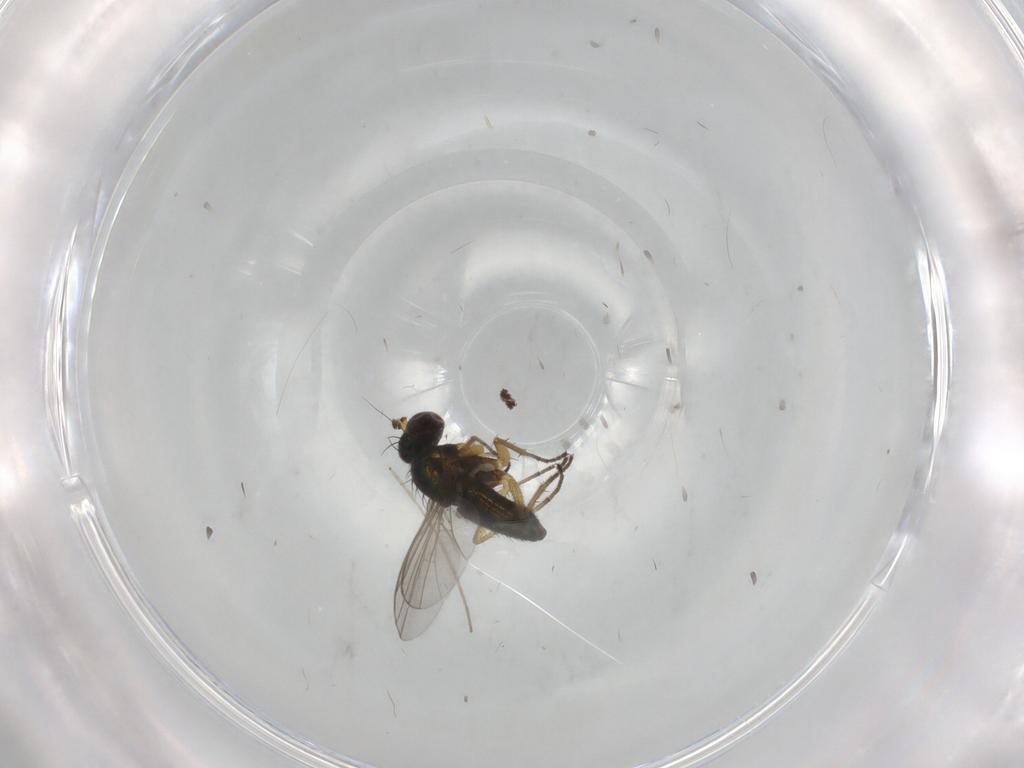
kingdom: Animalia
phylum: Arthropoda
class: Insecta
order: Diptera
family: Chironomidae
